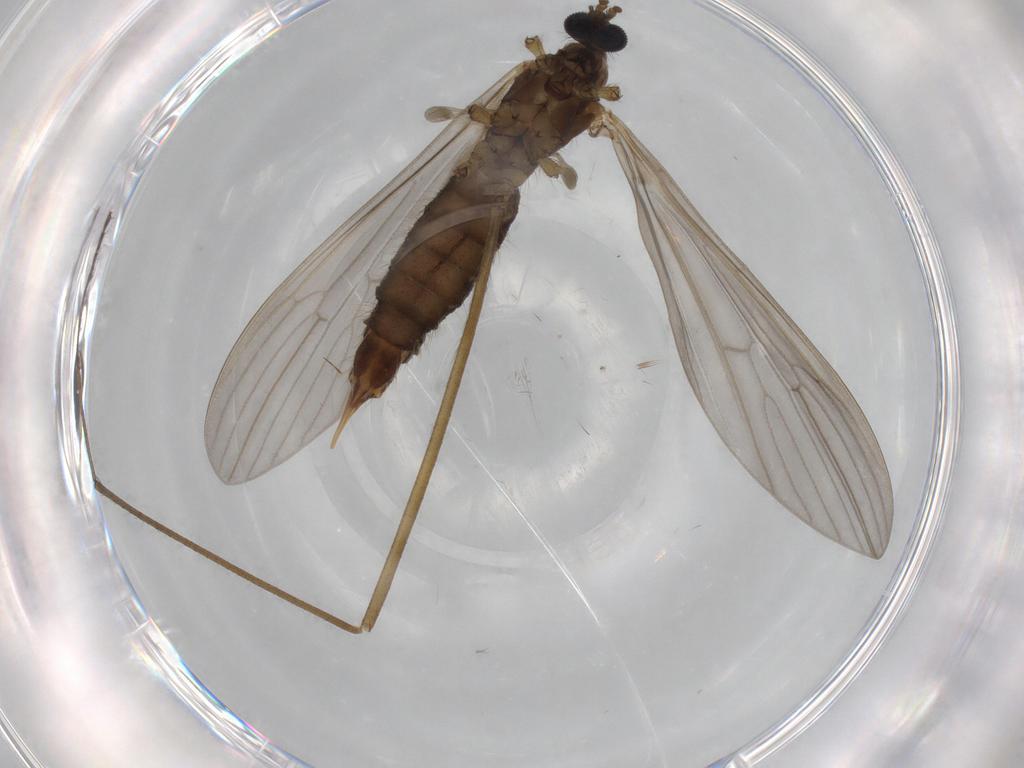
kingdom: Animalia
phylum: Arthropoda
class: Insecta
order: Diptera
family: Limoniidae
